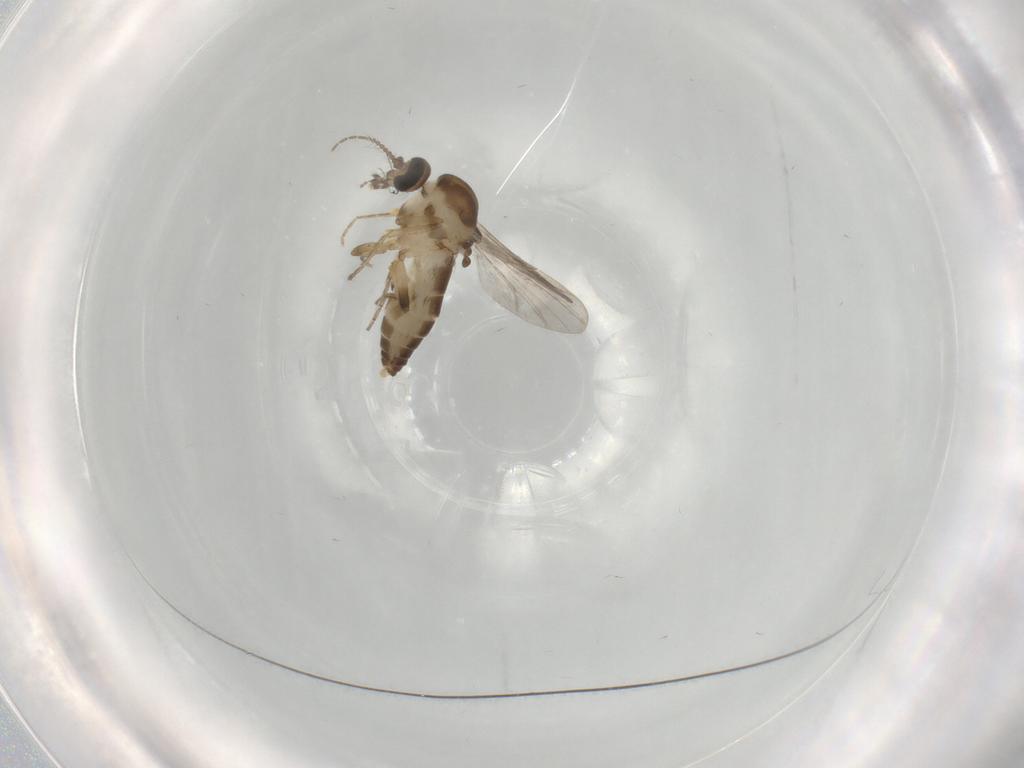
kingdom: Animalia
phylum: Arthropoda
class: Insecta
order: Diptera
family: Ceratopogonidae
